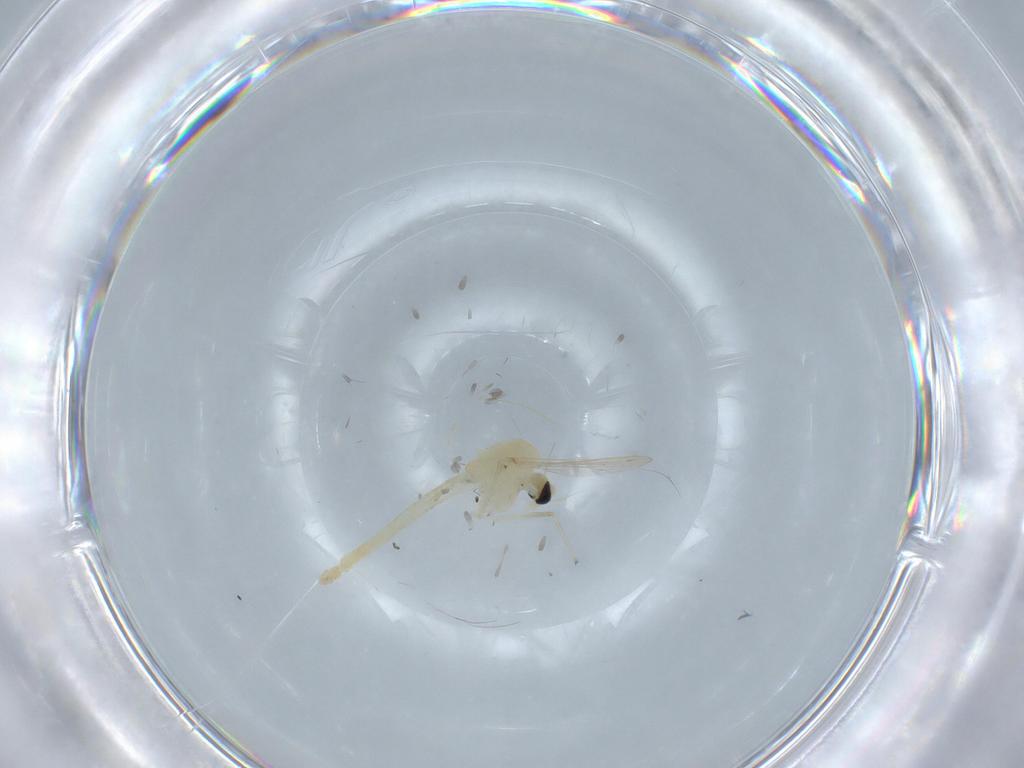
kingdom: Animalia
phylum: Arthropoda
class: Insecta
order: Diptera
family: Chironomidae
